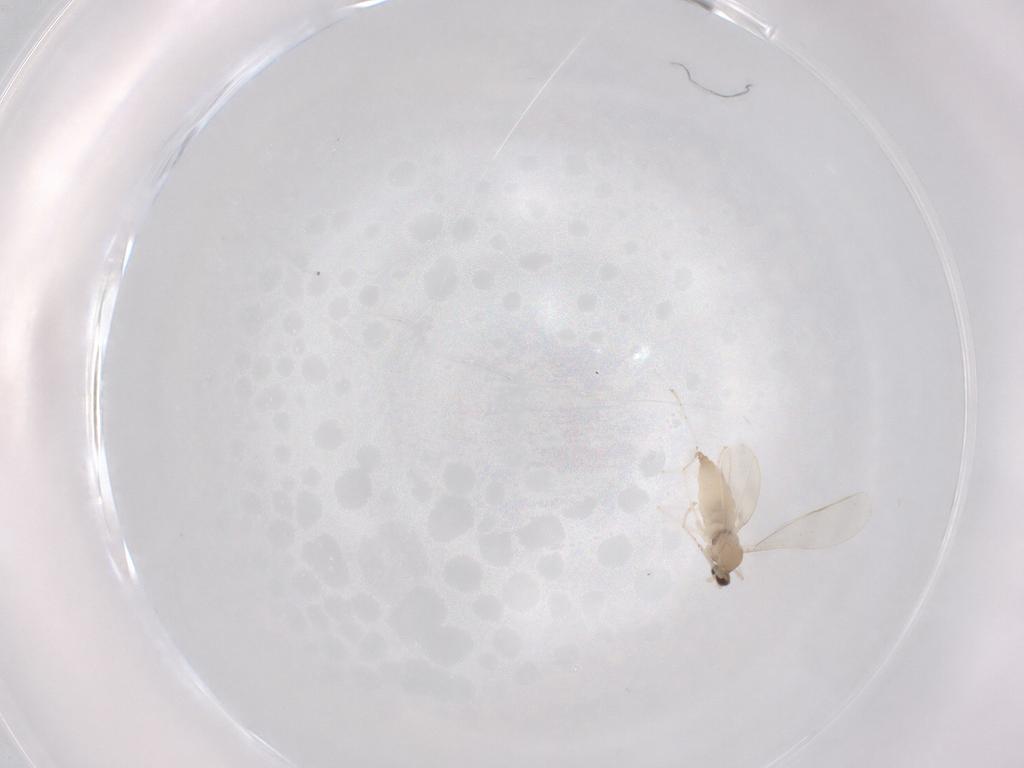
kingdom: Animalia
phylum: Arthropoda
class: Insecta
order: Diptera
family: Cecidomyiidae
